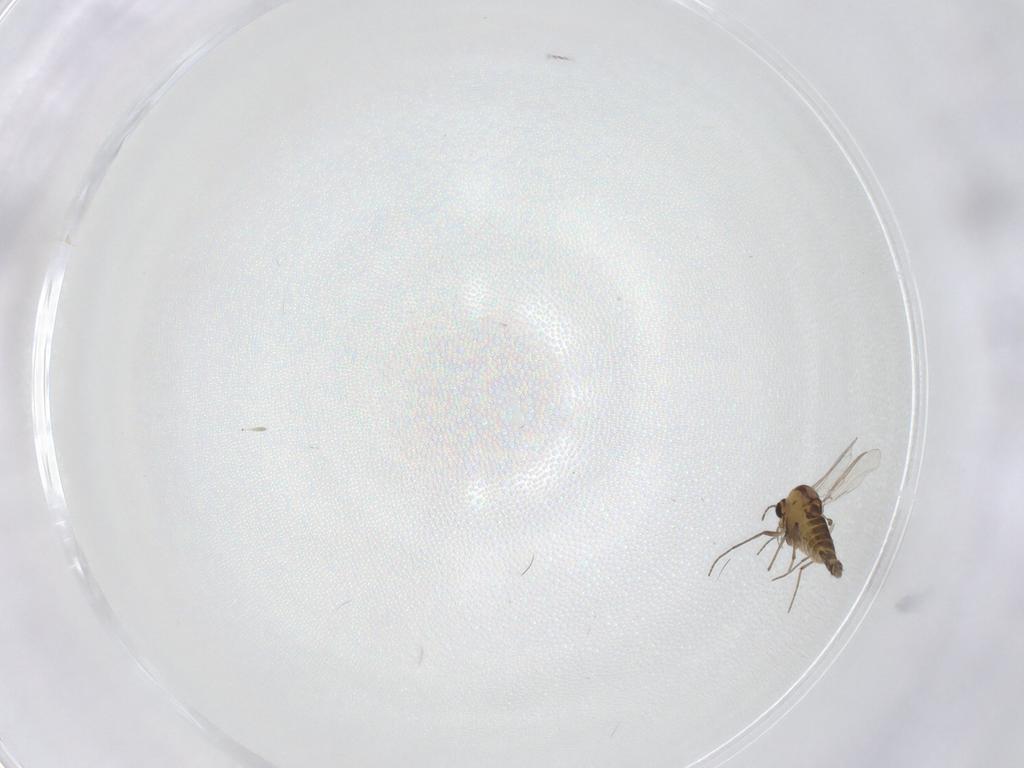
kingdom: Animalia
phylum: Arthropoda
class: Insecta
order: Diptera
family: Chironomidae
